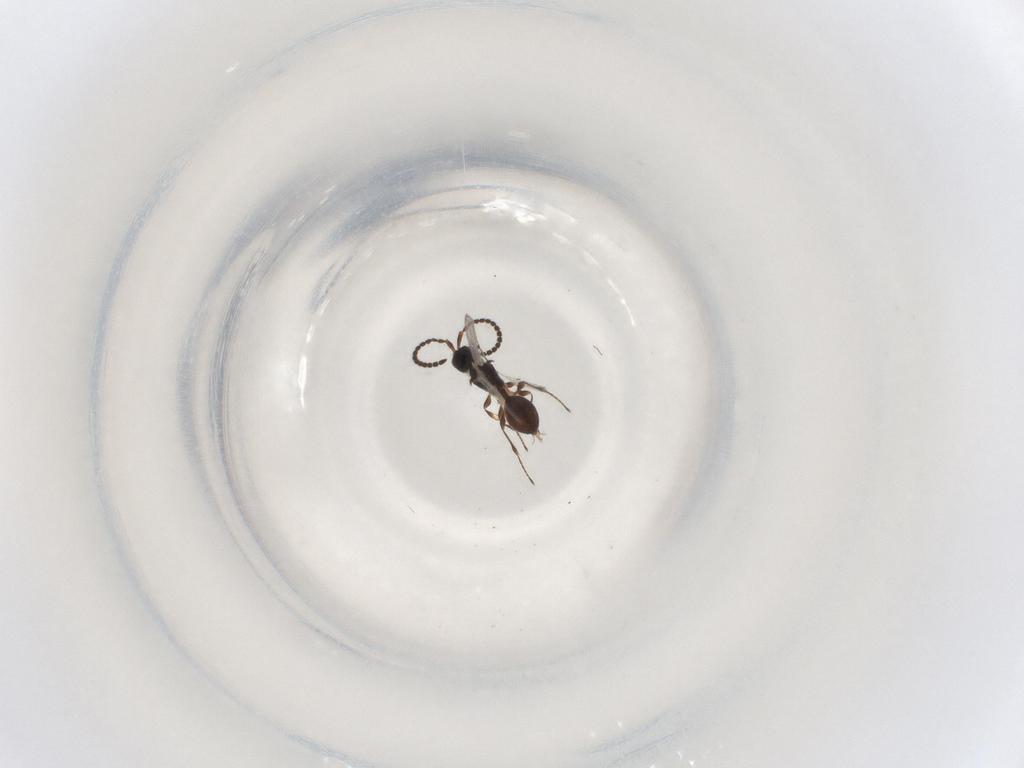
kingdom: Animalia
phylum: Arthropoda
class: Insecta
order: Hymenoptera
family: Diapriidae
